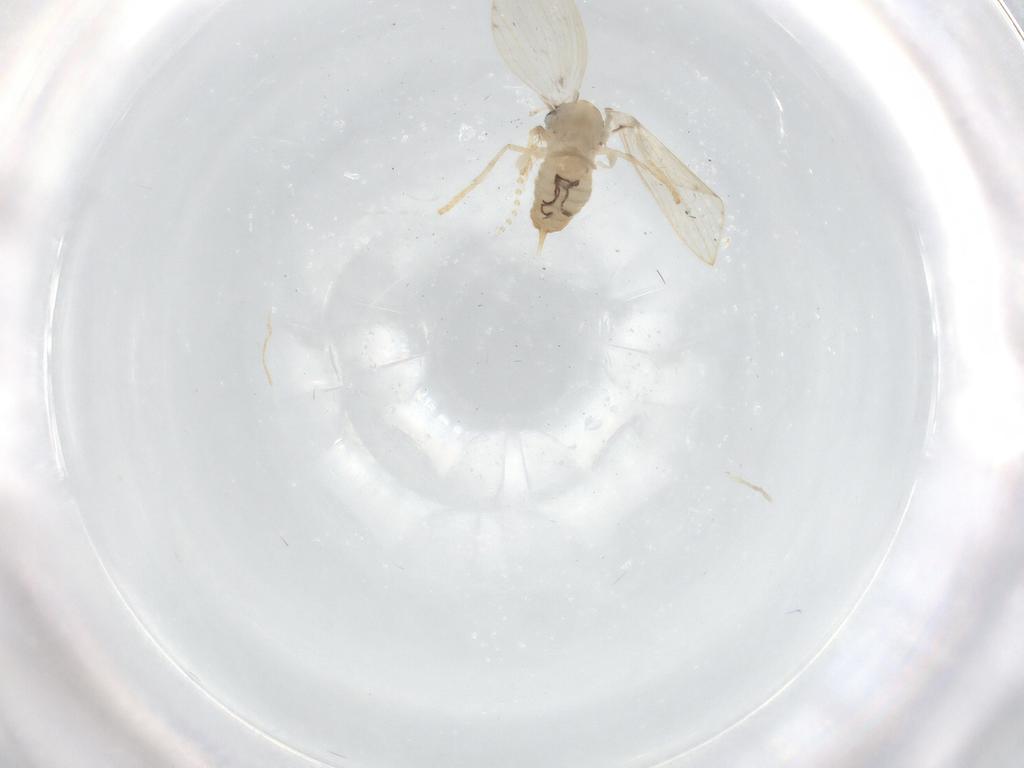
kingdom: Animalia
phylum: Arthropoda
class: Insecta
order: Diptera
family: Psychodidae
